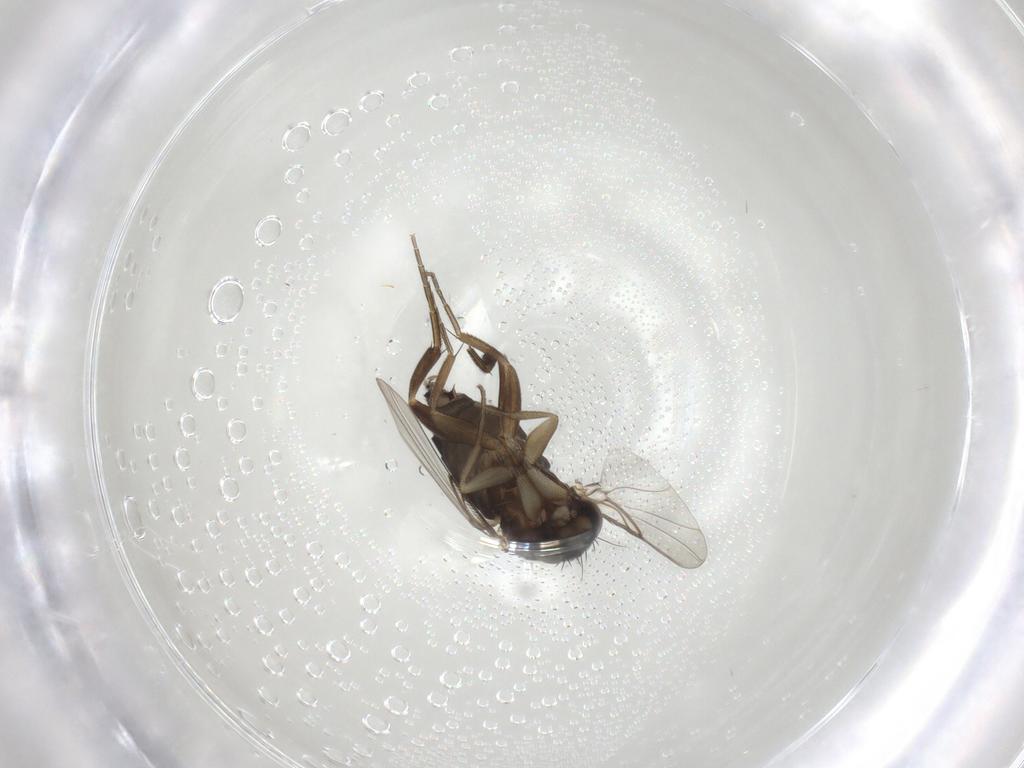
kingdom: Animalia
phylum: Arthropoda
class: Insecta
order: Diptera
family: Phoridae
